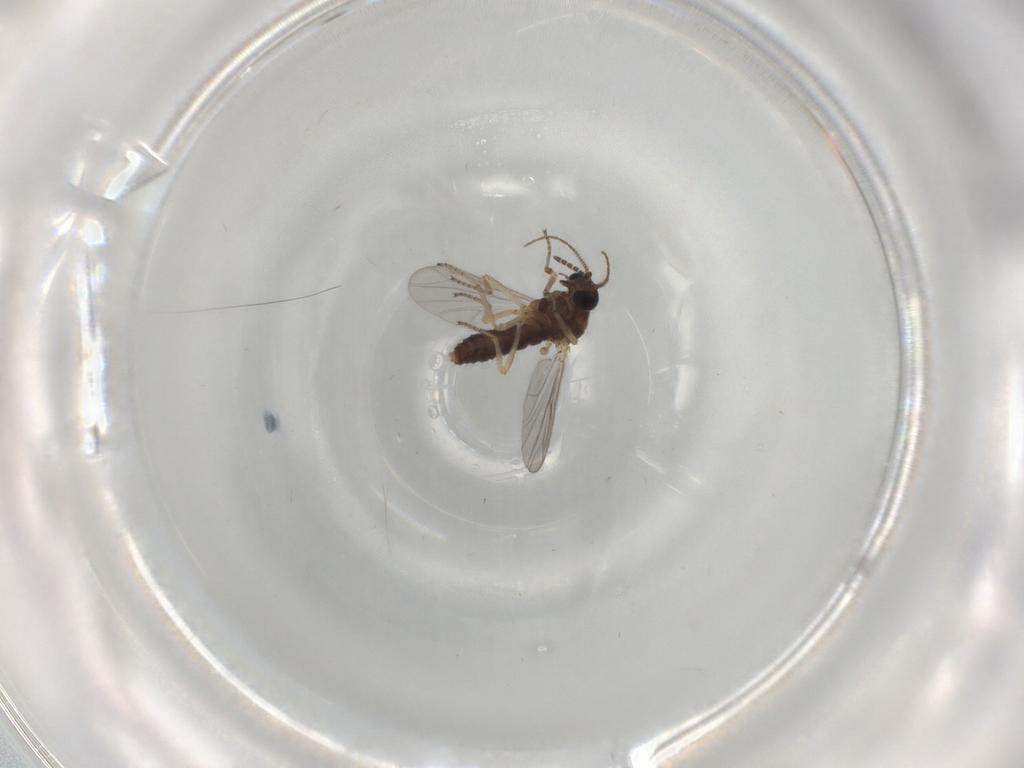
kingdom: Animalia
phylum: Arthropoda
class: Insecta
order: Diptera
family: Ceratopogonidae
